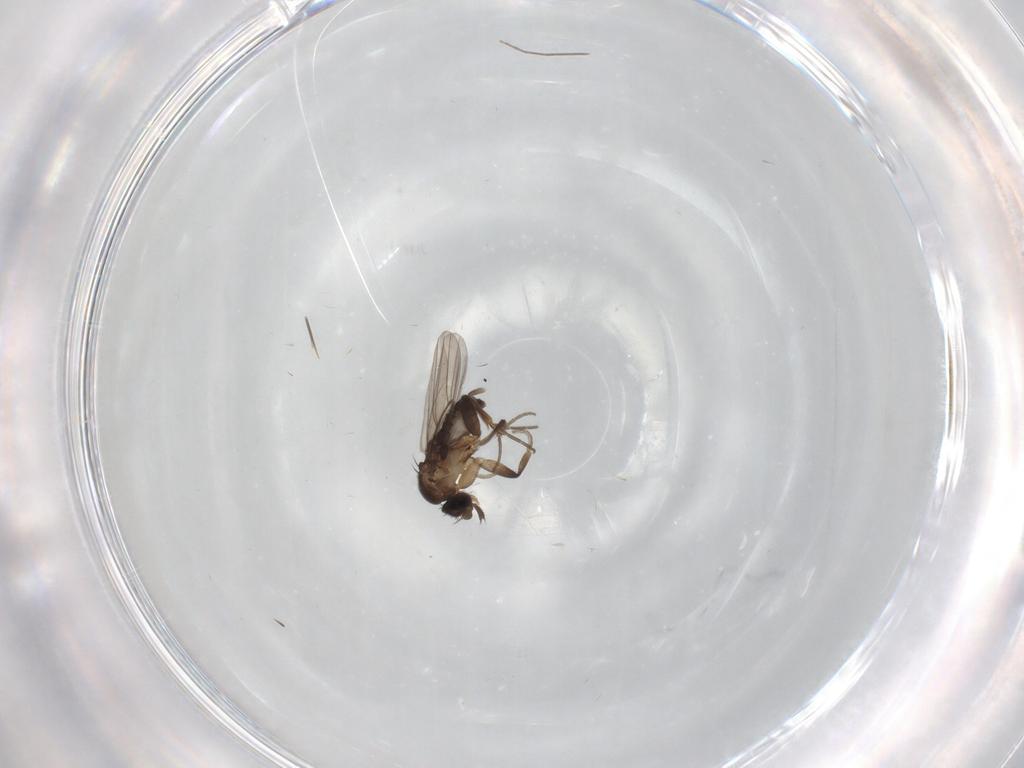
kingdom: Animalia
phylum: Arthropoda
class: Insecta
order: Diptera
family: Phoridae
